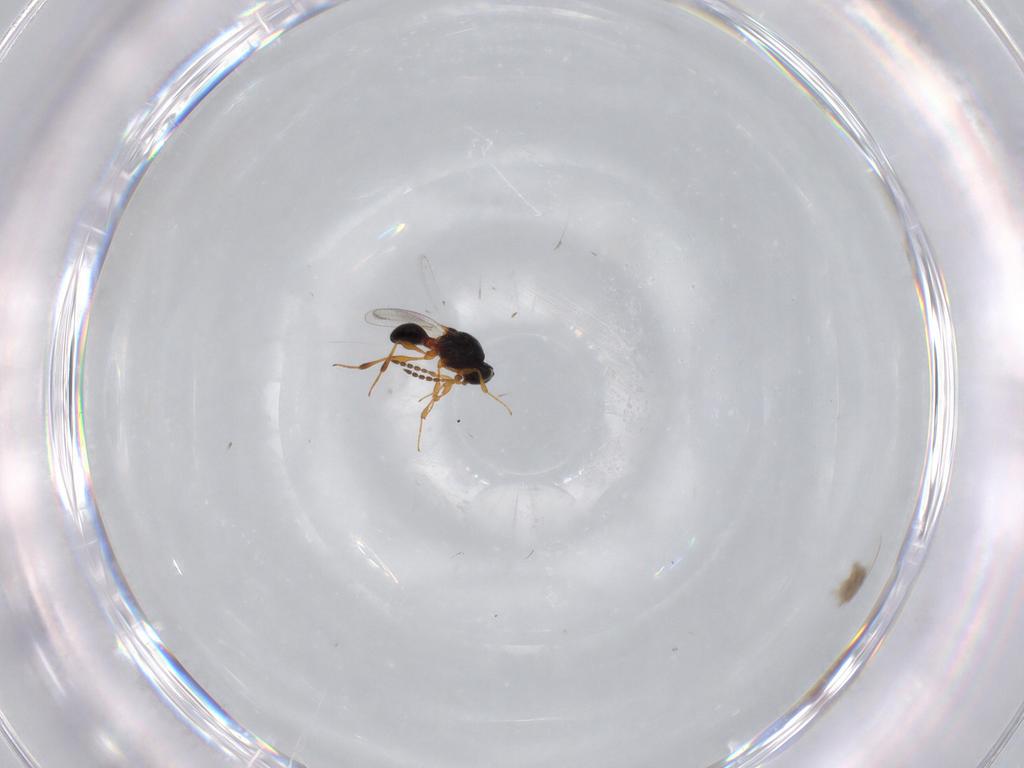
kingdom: Animalia
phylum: Arthropoda
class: Insecta
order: Hymenoptera
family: Platygastridae
